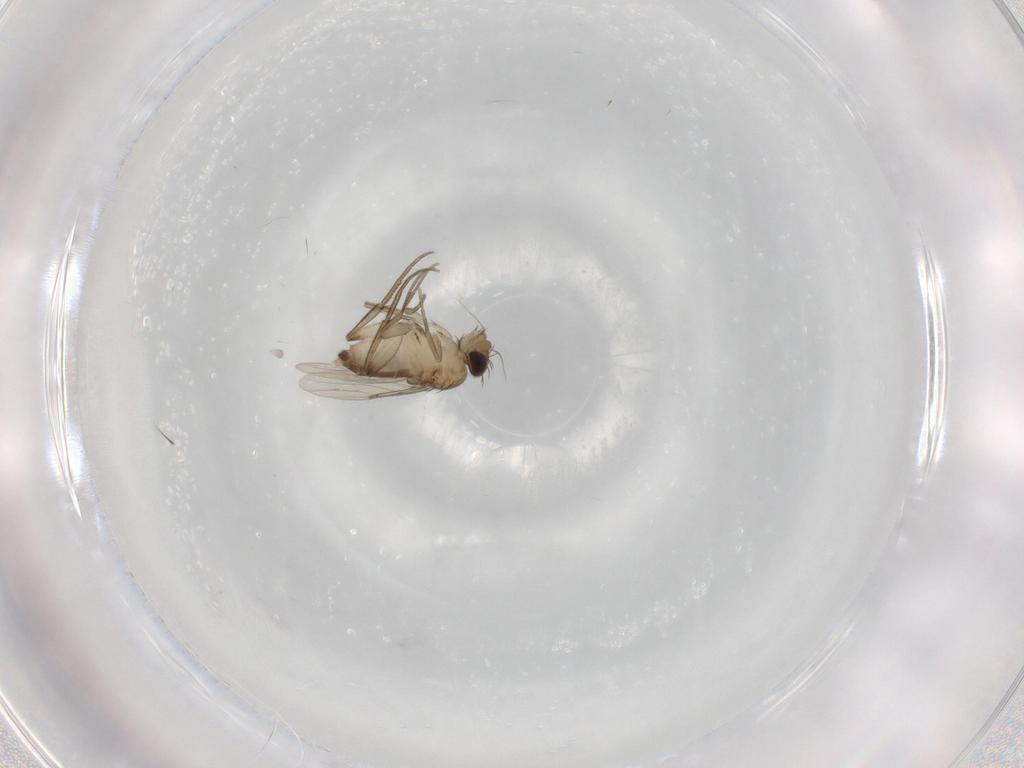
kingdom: Animalia
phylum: Arthropoda
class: Insecta
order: Diptera
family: Phoridae
